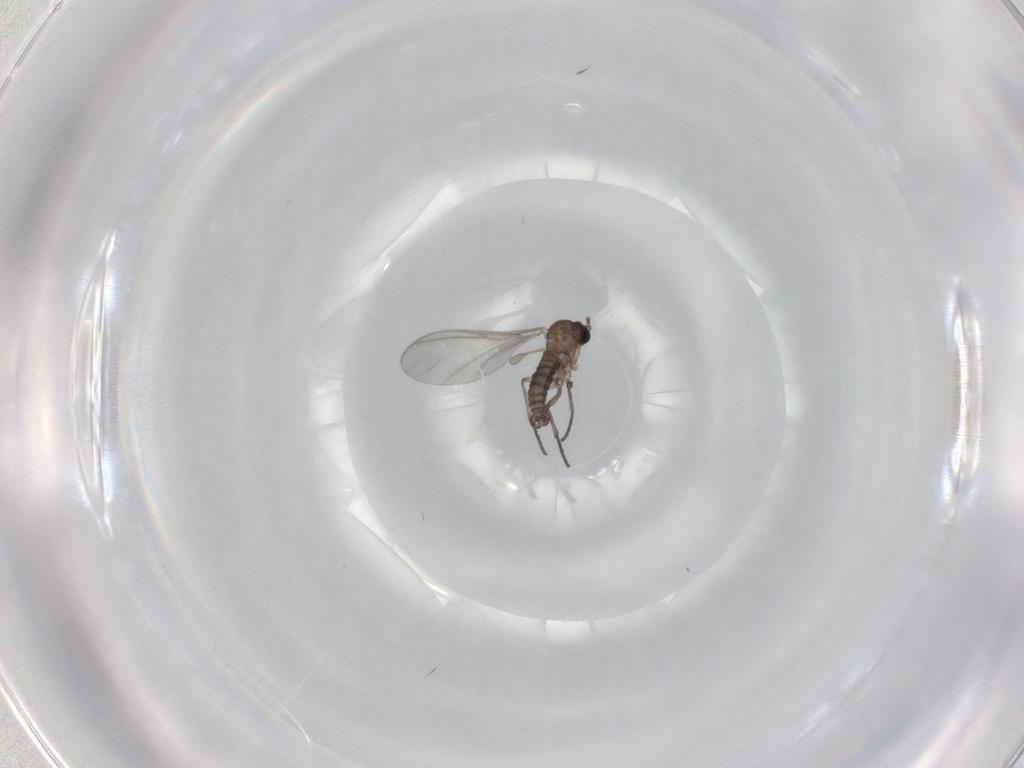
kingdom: Animalia
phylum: Arthropoda
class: Insecta
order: Diptera
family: Sciaridae
